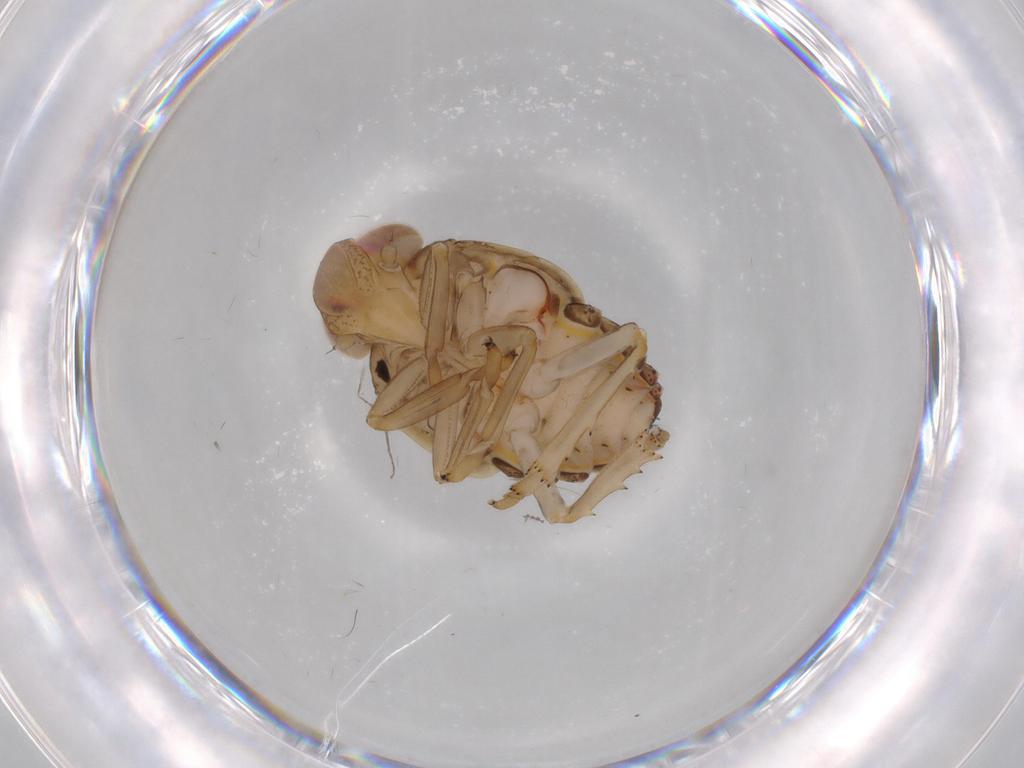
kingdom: Animalia
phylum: Arthropoda
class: Insecta
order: Hemiptera
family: Issidae
